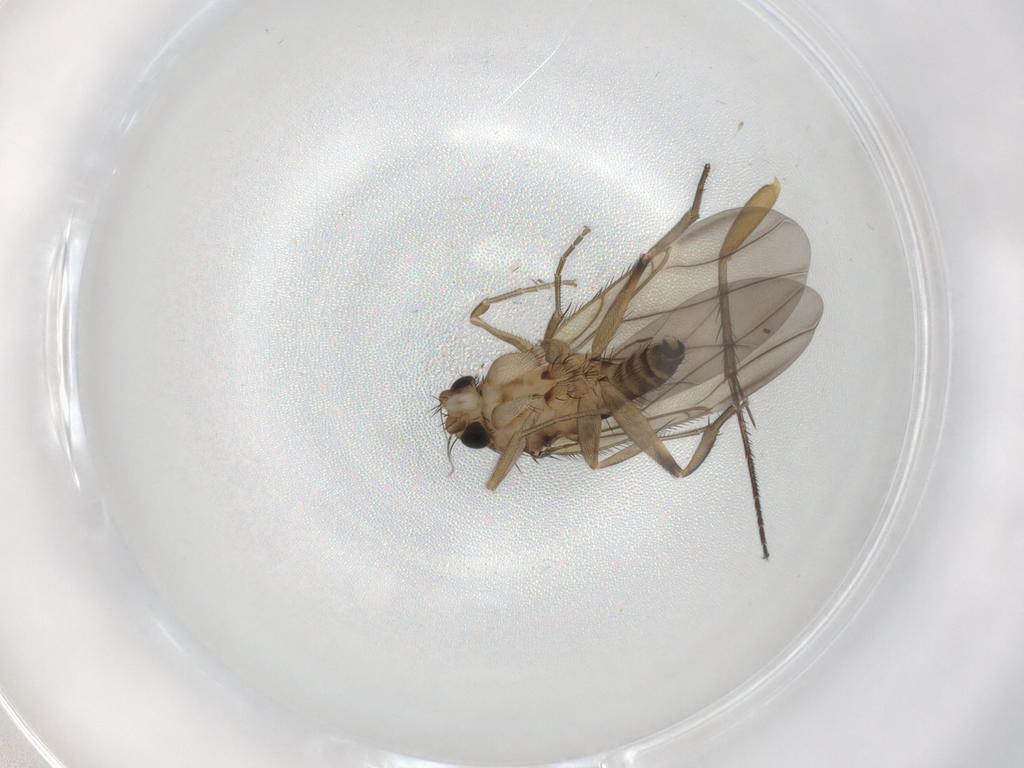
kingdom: Animalia
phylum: Arthropoda
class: Insecta
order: Diptera
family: Phoridae
